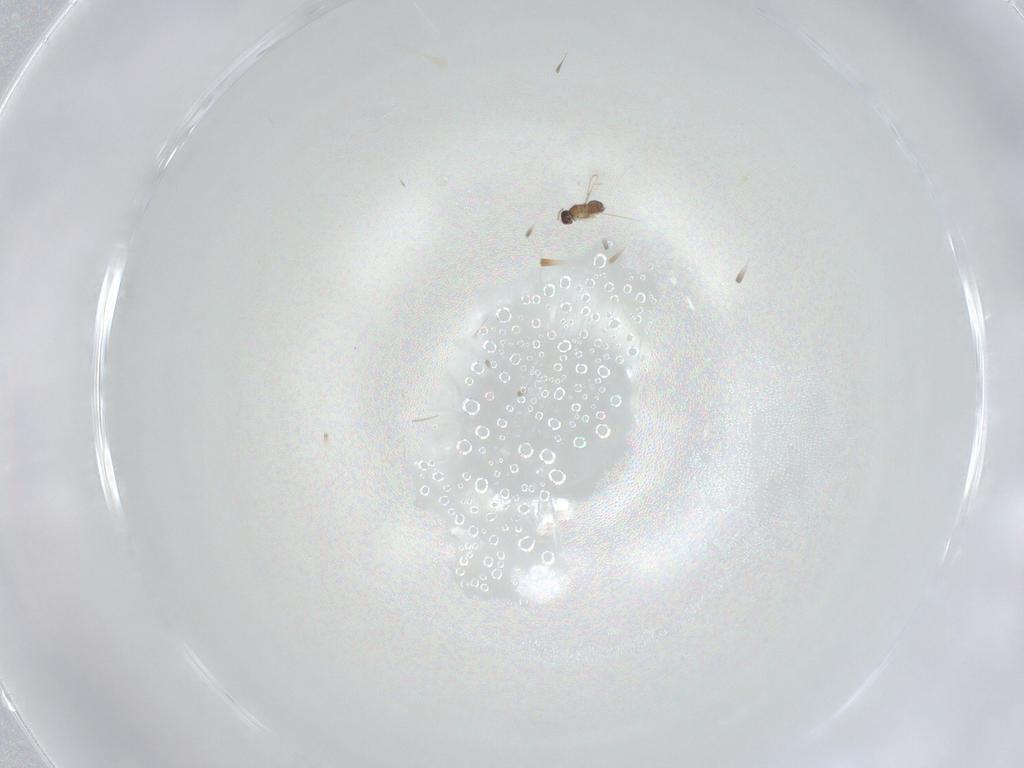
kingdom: Animalia
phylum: Arthropoda
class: Insecta
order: Hymenoptera
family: Mymaridae
